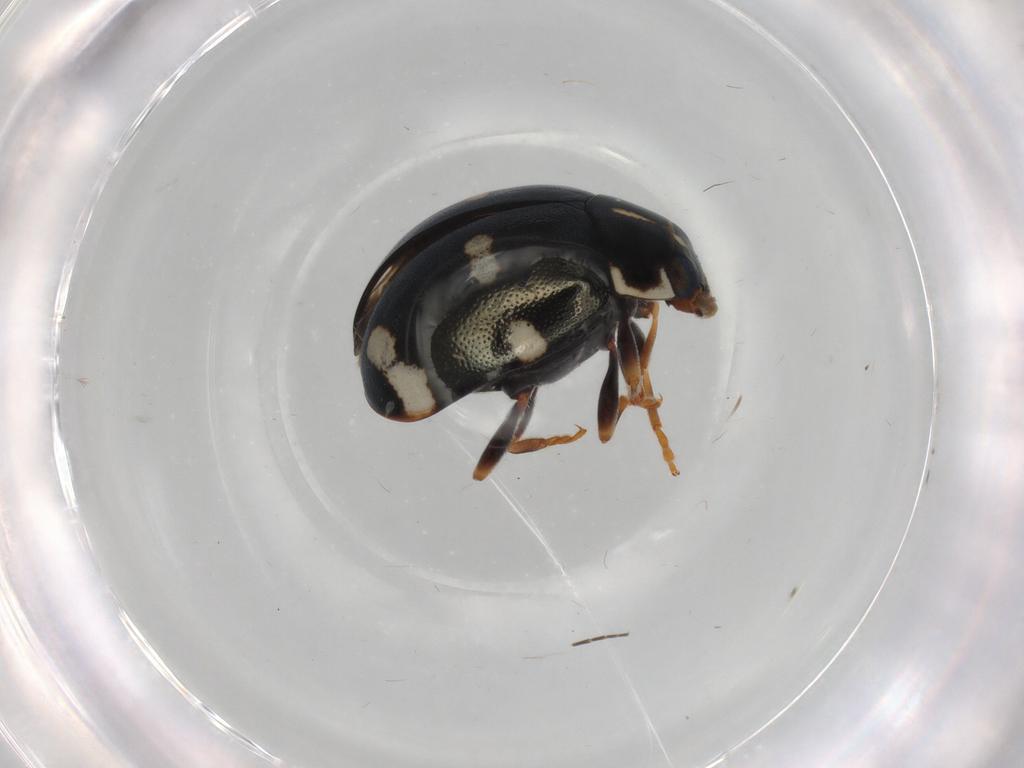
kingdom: Animalia
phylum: Arthropoda
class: Insecta
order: Coleoptera
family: Coccinellidae
